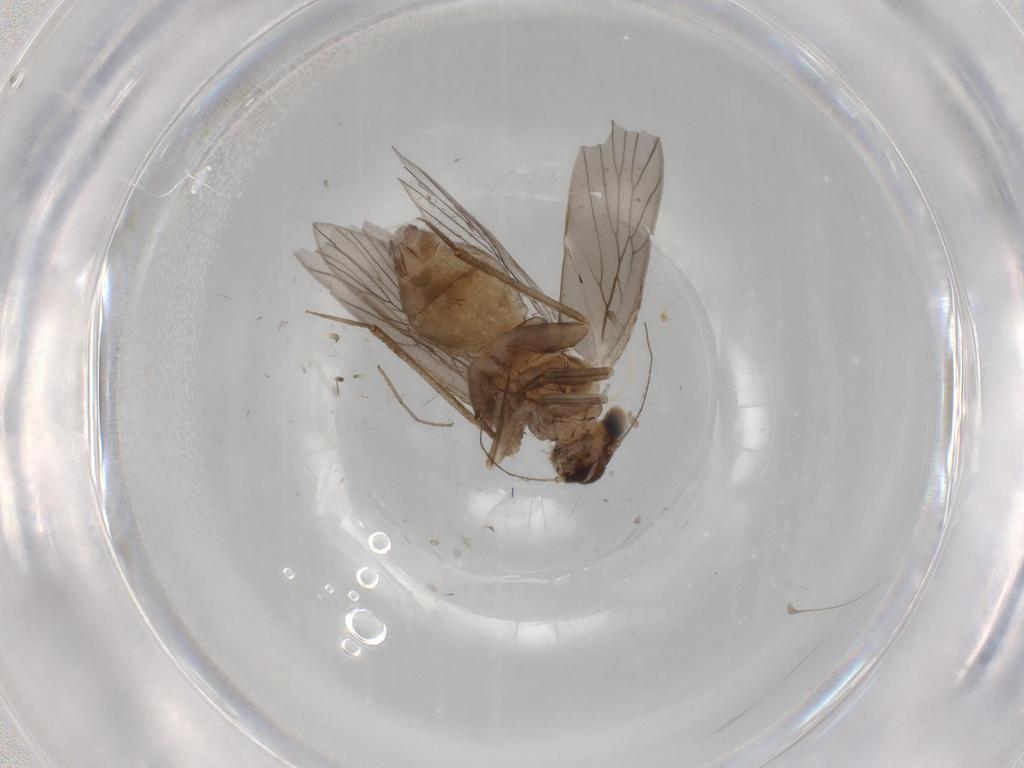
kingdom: Animalia
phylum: Arthropoda
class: Insecta
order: Psocodea
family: Lepidopsocidae
